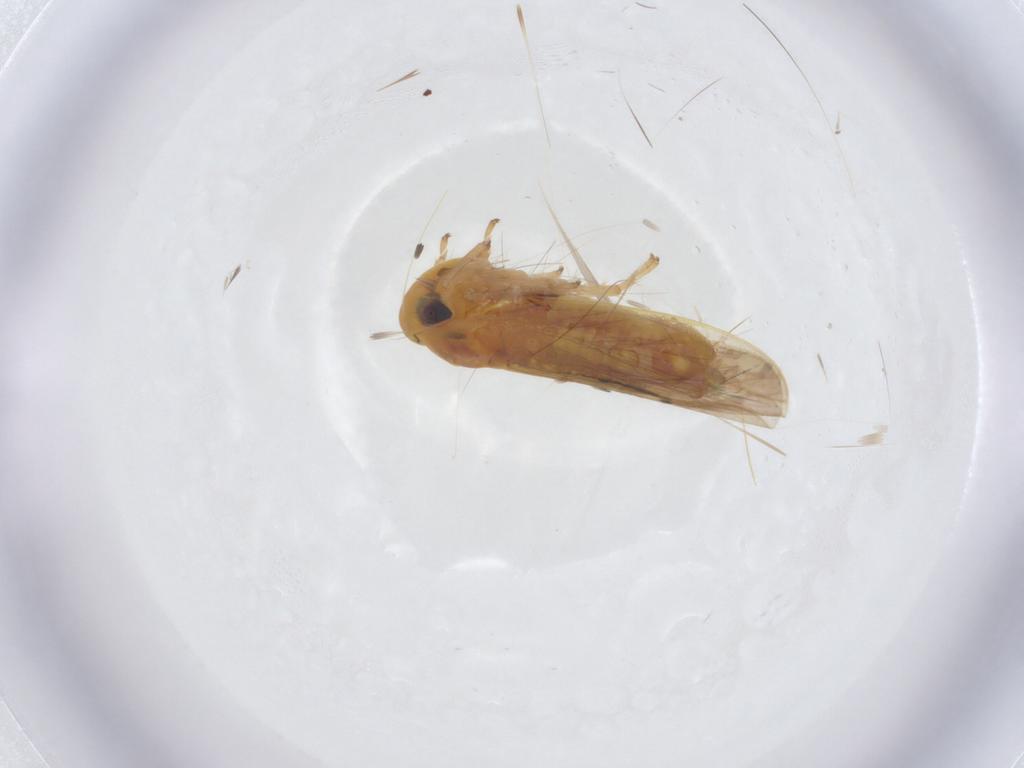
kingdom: Animalia
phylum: Arthropoda
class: Insecta
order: Hemiptera
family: Cicadellidae
